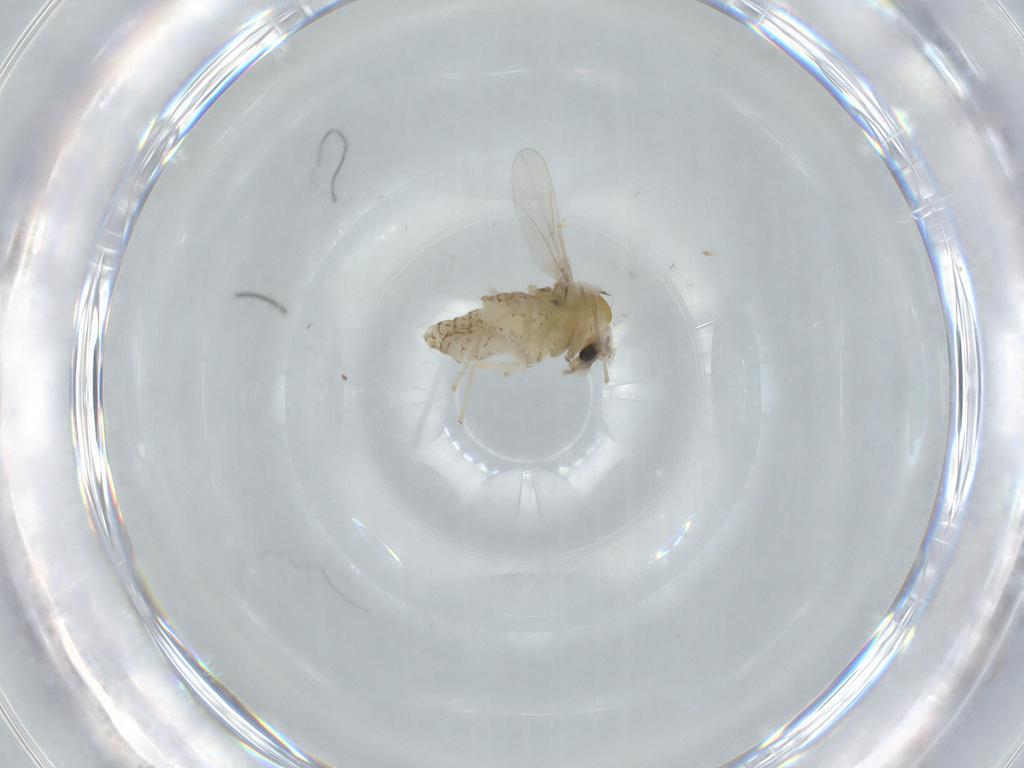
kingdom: Animalia
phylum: Arthropoda
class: Insecta
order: Diptera
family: Chironomidae
